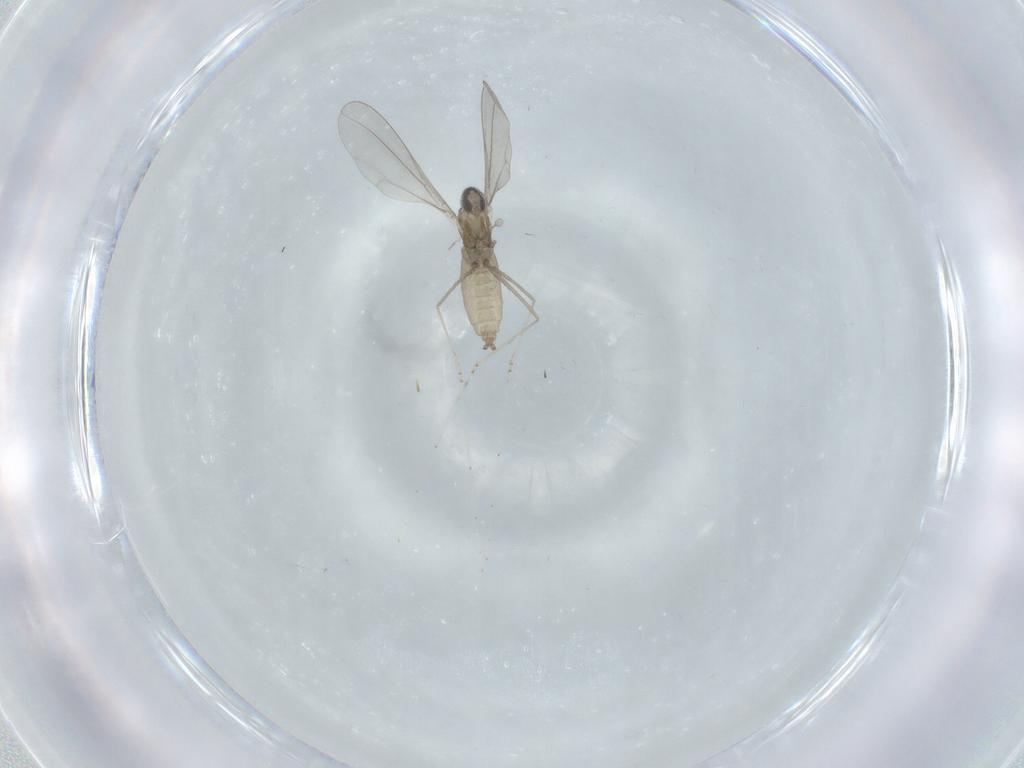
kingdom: Animalia
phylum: Arthropoda
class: Insecta
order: Diptera
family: Cecidomyiidae
